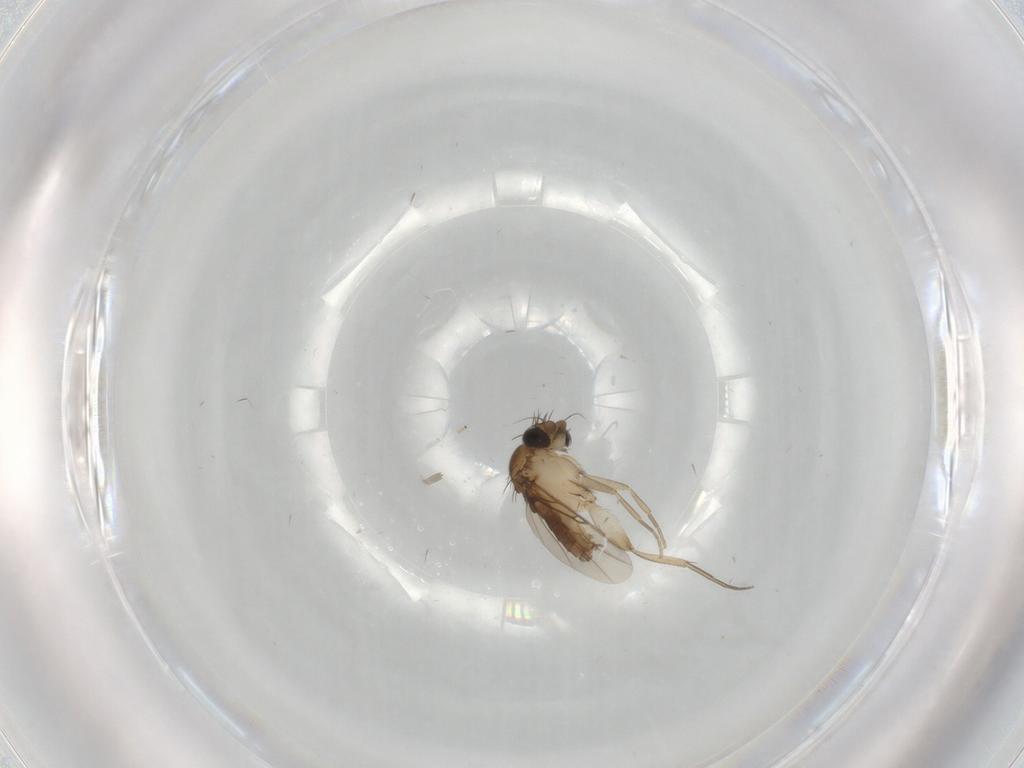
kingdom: Animalia
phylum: Arthropoda
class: Insecta
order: Diptera
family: Phoridae
